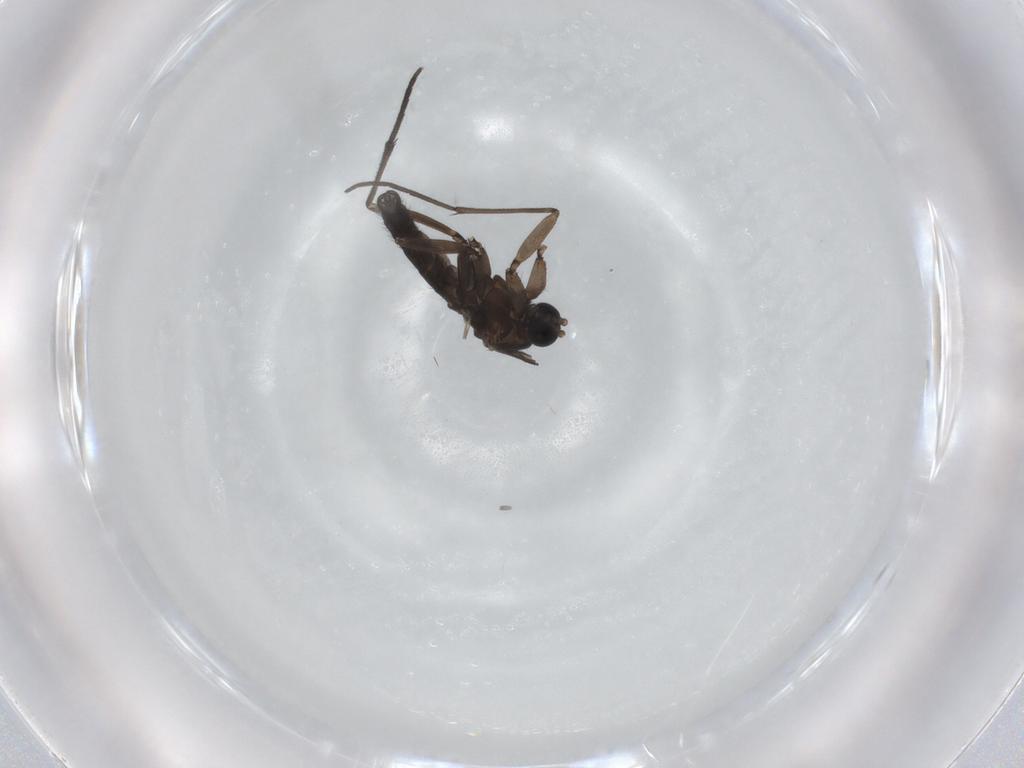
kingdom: Animalia
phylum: Arthropoda
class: Insecta
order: Diptera
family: Sciaridae
